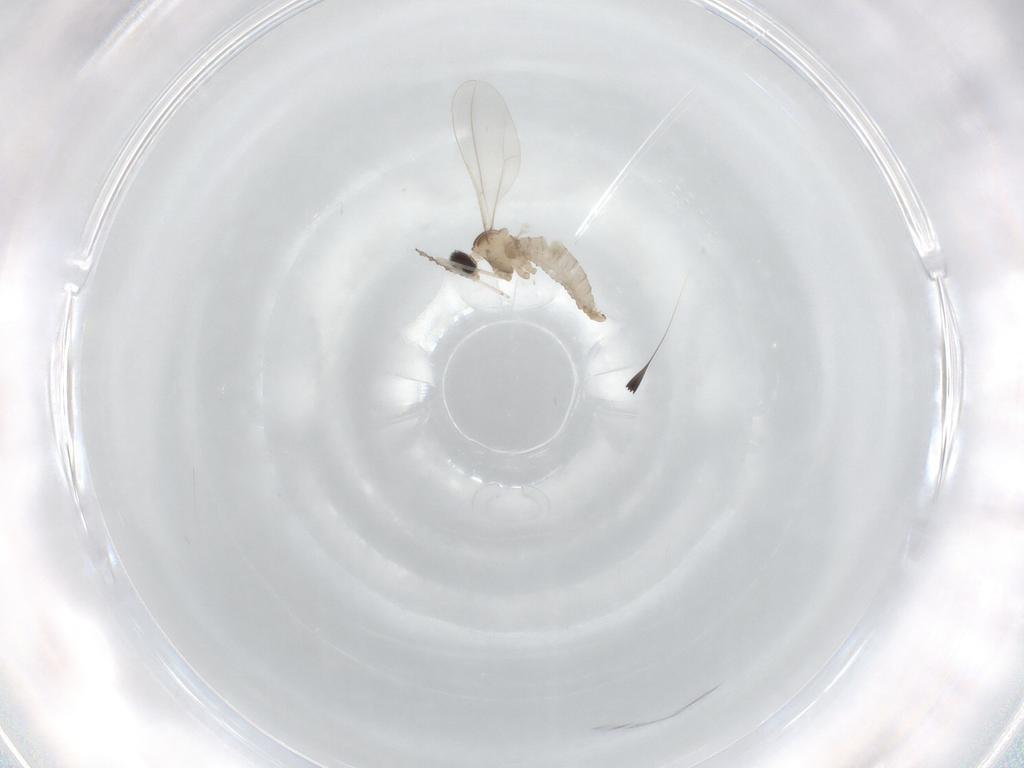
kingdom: Animalia
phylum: Arthropoda
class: Insecta
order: Diptera
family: Cecidomyiidae
